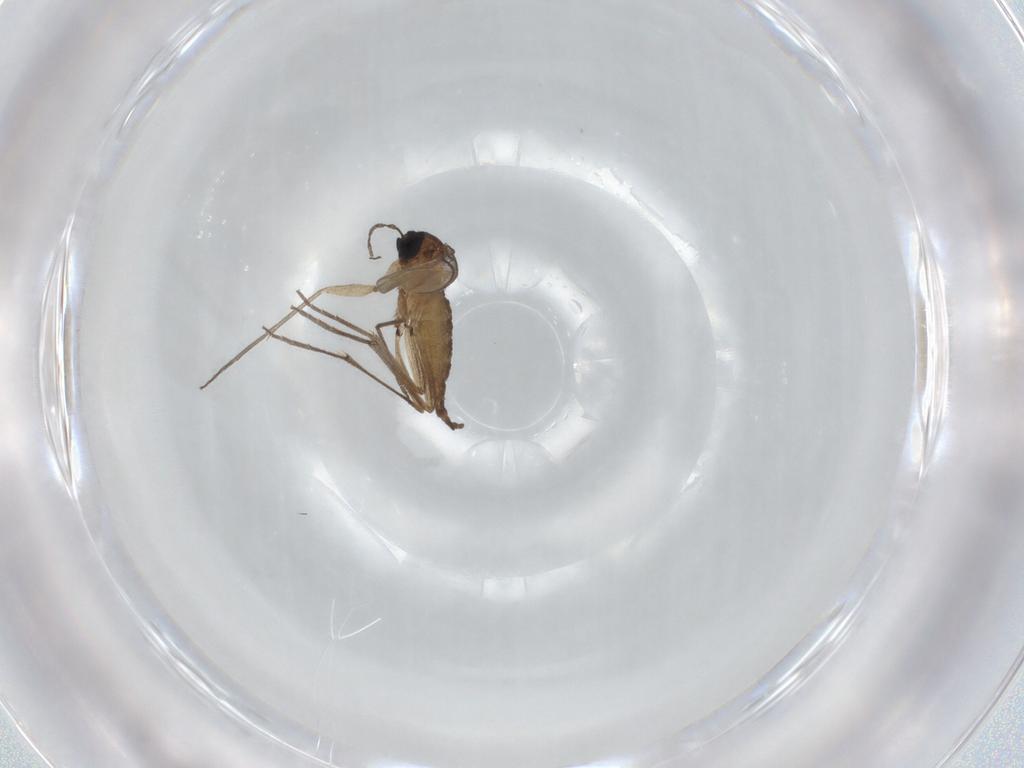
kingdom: Animalia
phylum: Arthropoda
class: Insecta
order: Diptera
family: Sciaridae
